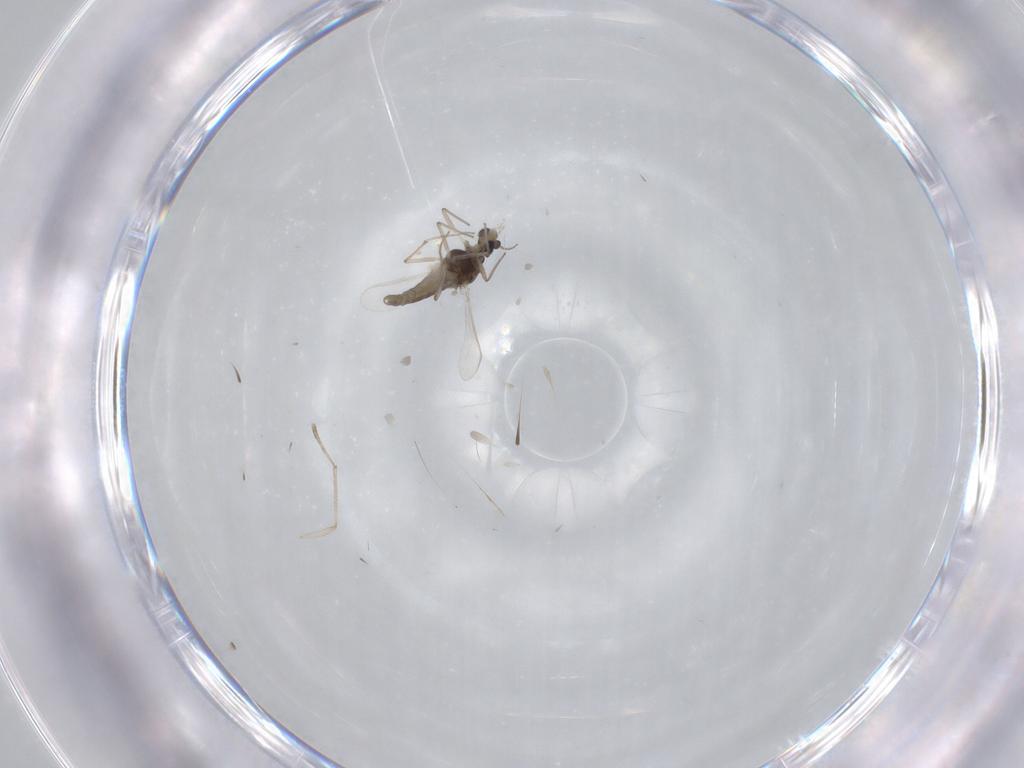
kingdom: Animalia
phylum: Arthropoda
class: Insecta
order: Diptera
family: Chironomidae
